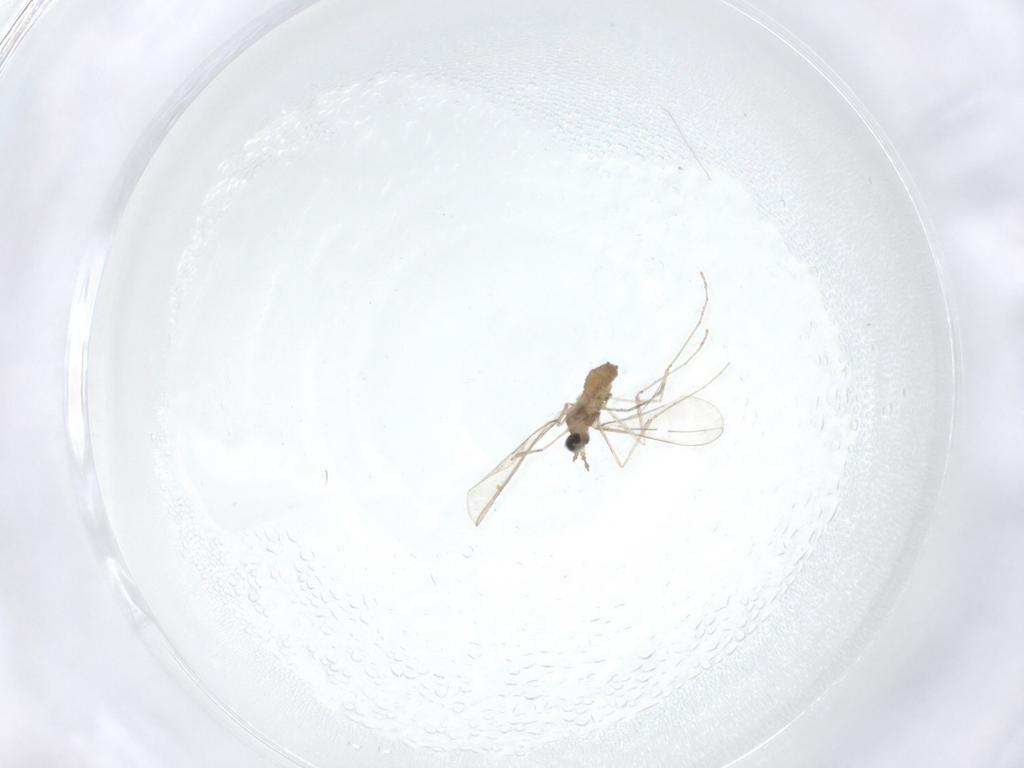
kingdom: Animalia
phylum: Arthropoda
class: Insecta
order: Diptera
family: Cecidomyiidae
